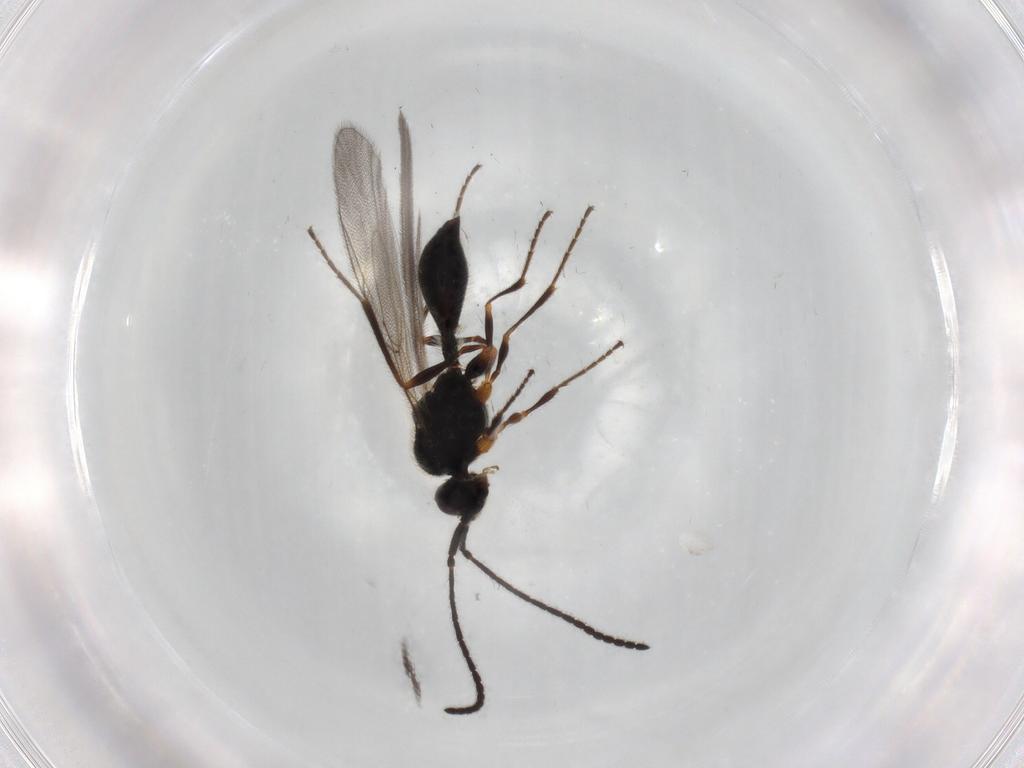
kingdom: Animalia
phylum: Arthropoda
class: Insecta
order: Hymenoptera
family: Diapriidae
